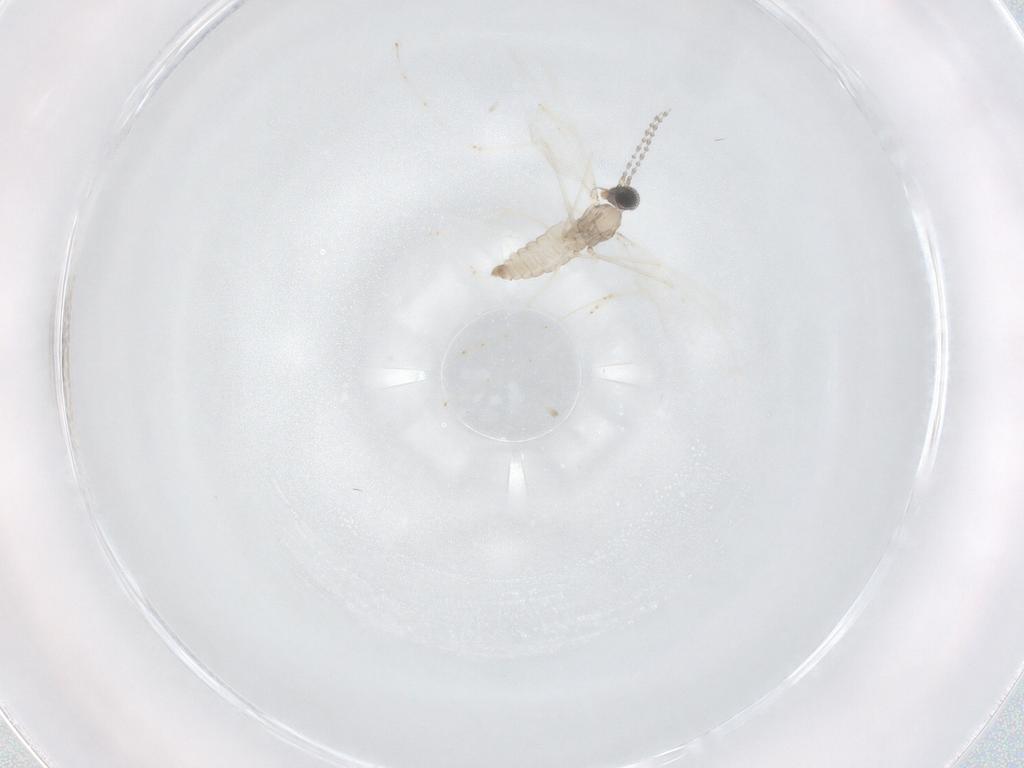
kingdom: Animalia
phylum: Arthropoda
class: Insecta
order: Diptera
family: Cecidomyiidae
